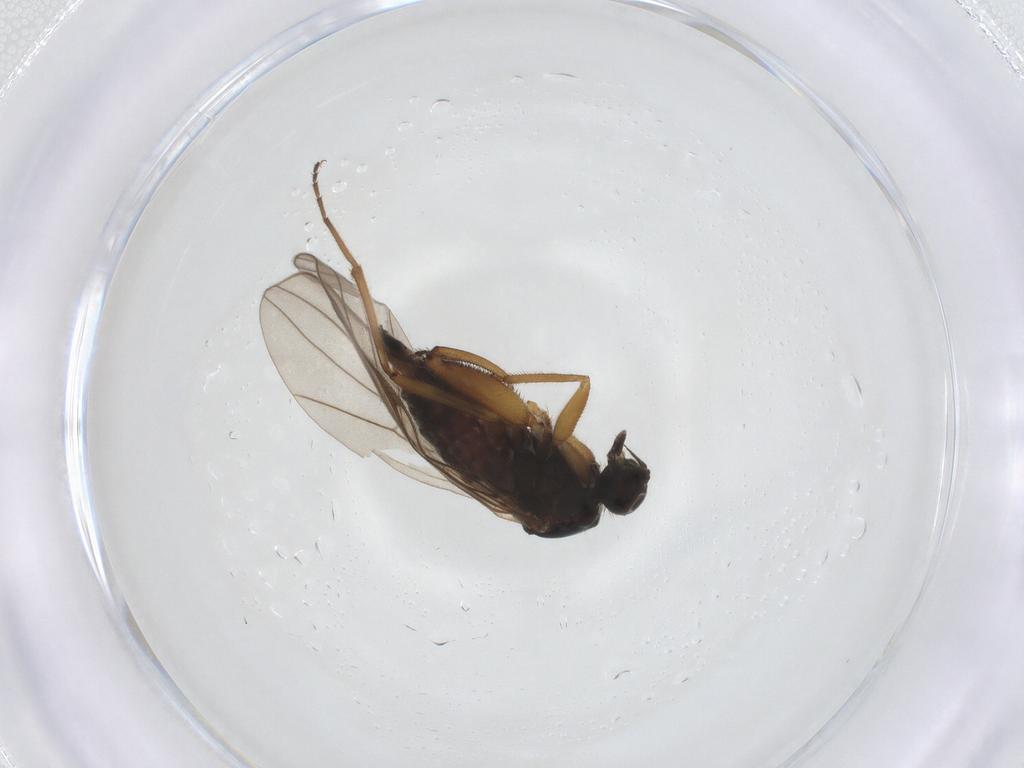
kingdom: Animalia
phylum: Arthropoda
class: Insecta
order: Diptera
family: Hybotidae
